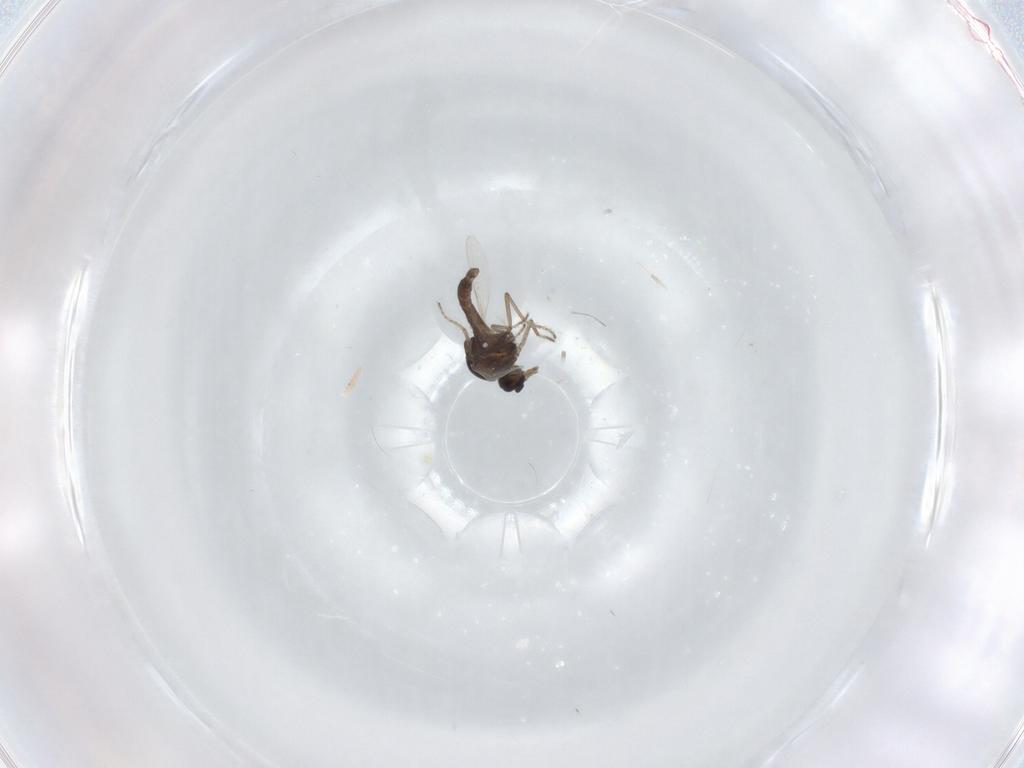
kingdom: Animalia
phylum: Arthropoda
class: Insecta
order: Diptera
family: Ceratopogonidae
